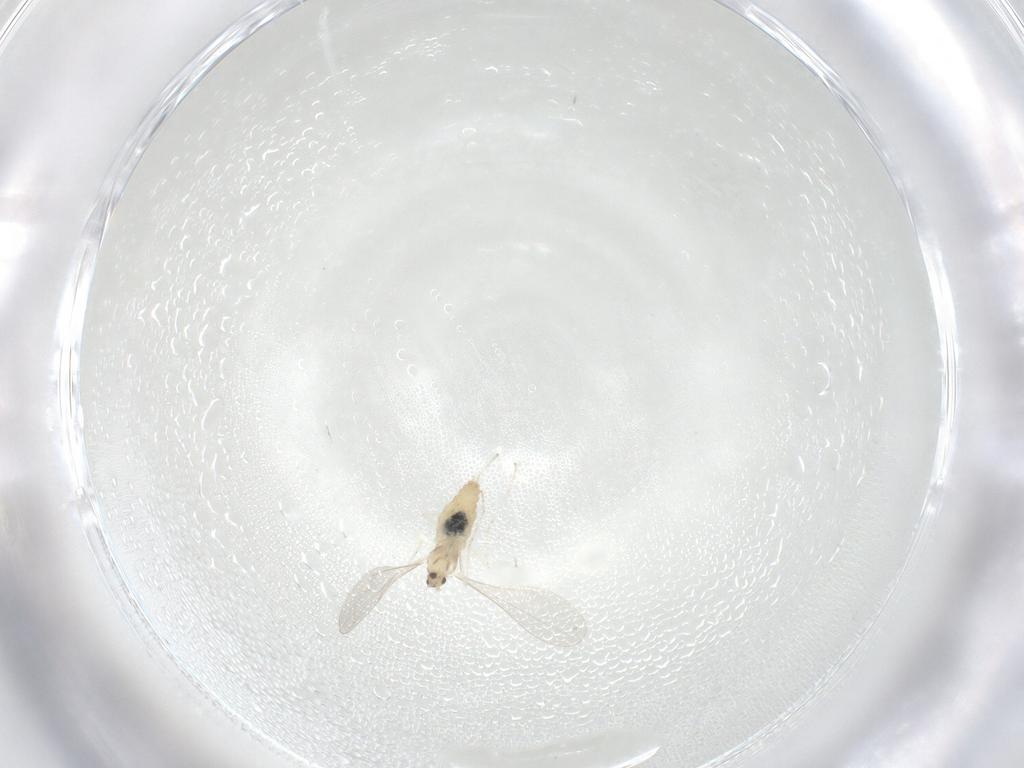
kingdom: Animalia
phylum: Arthropoda
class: Insecta
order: Diptera
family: Cecidomyiidae
